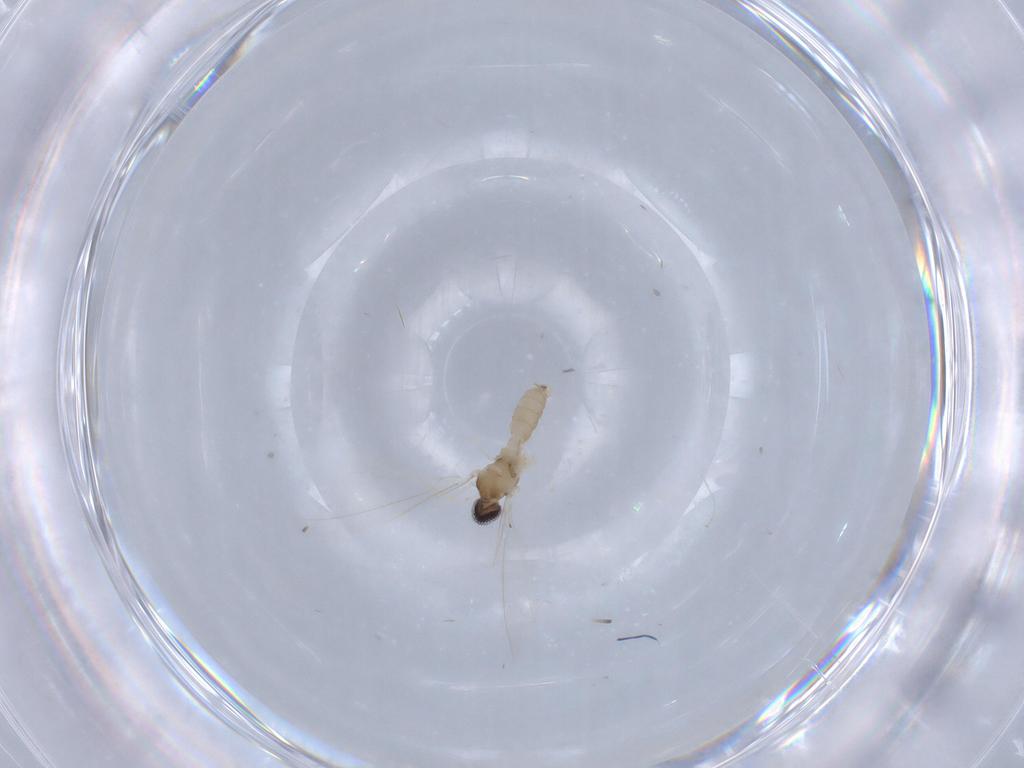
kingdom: Animalia
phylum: Arthropoda
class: Insecta
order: Diptera
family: Cecidomyiidae
